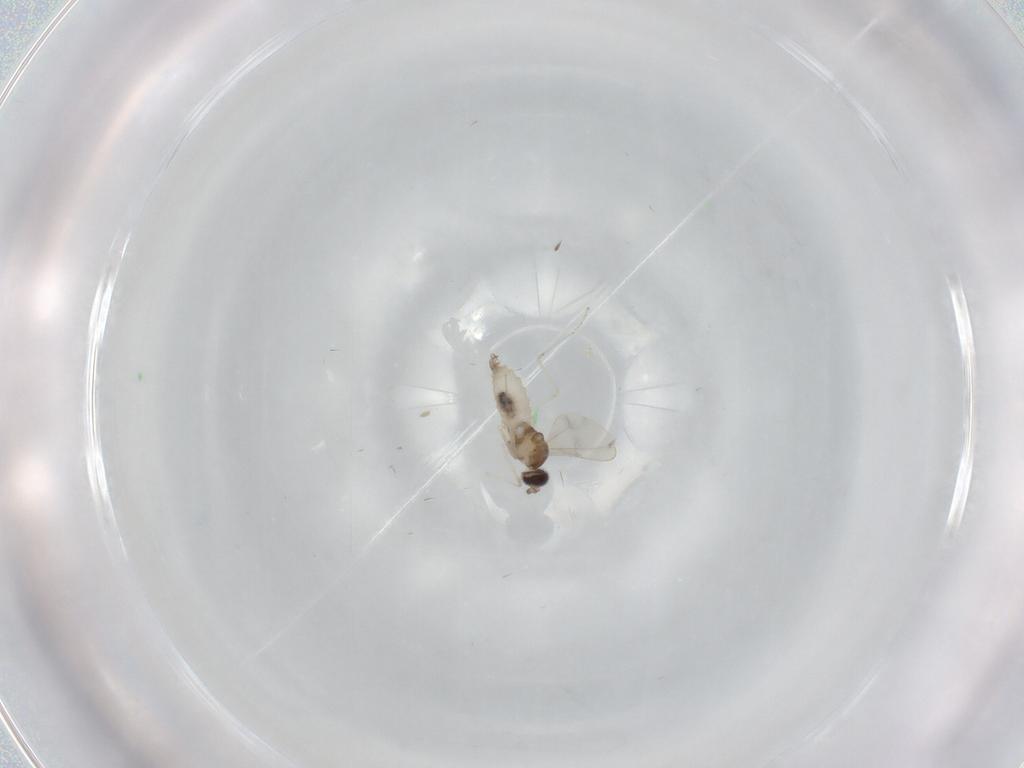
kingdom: Animalia
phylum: Arthropoda
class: Insecta
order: Diptera
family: Cecidomyiidae
